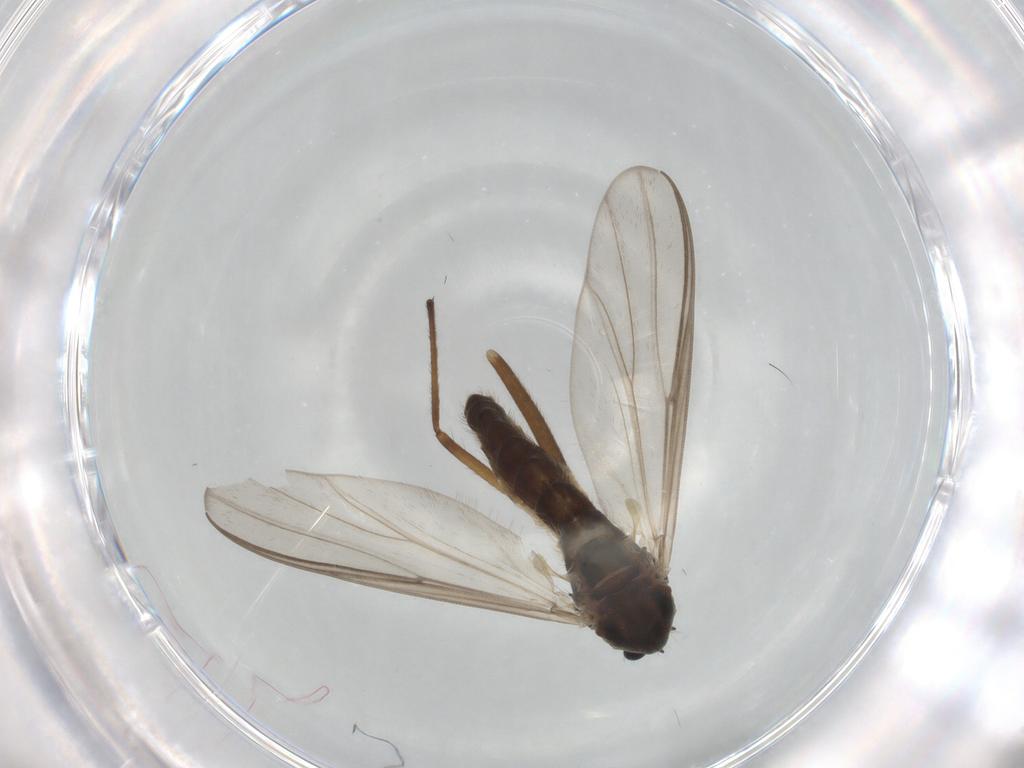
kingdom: Animalia
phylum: Arthropoda
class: Insecta
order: Diptera
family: Chironomidae
